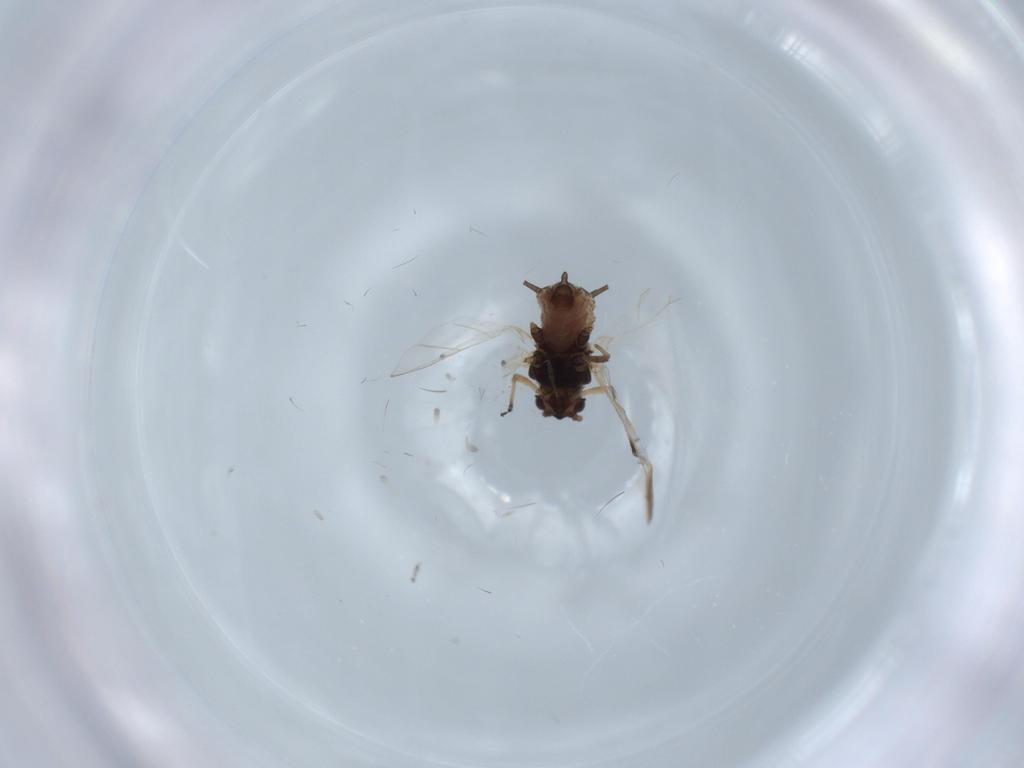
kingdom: Animalia
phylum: Arthropoda
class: Insecta
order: Hemiptera
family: Aphididae
